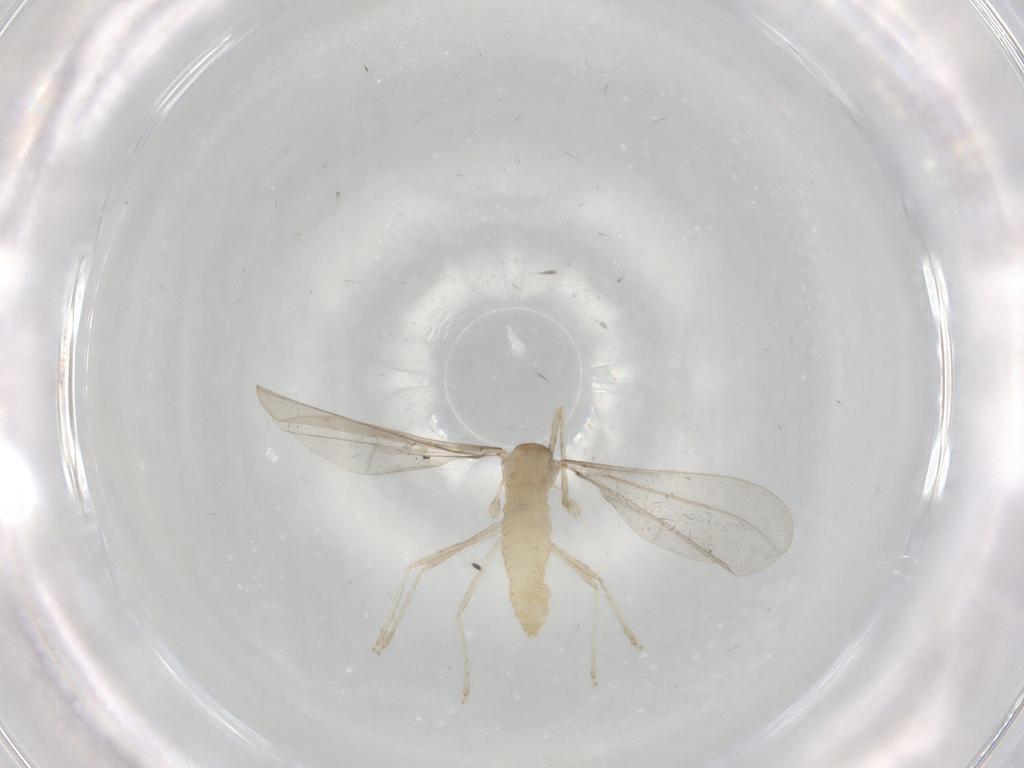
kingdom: Animalia
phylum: Arthropoda
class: Insecta
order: Diptera
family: Cecidomyiidae
